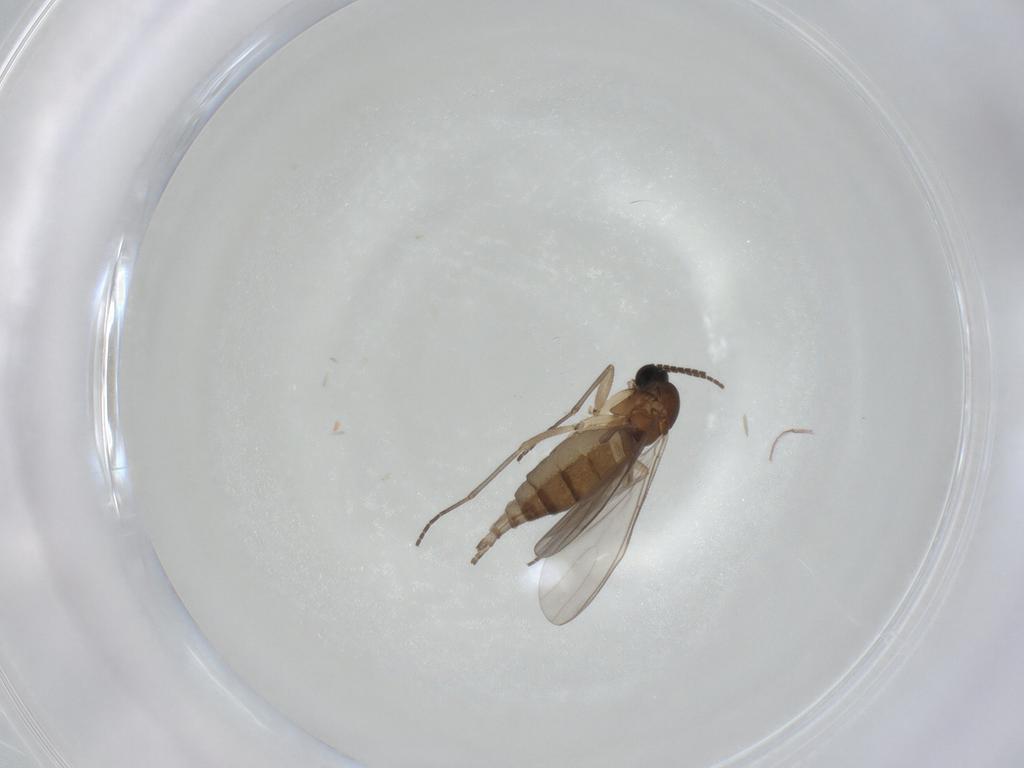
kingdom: Animalia
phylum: Arthropoda
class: Insecta
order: Diptera
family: Sciaridae
